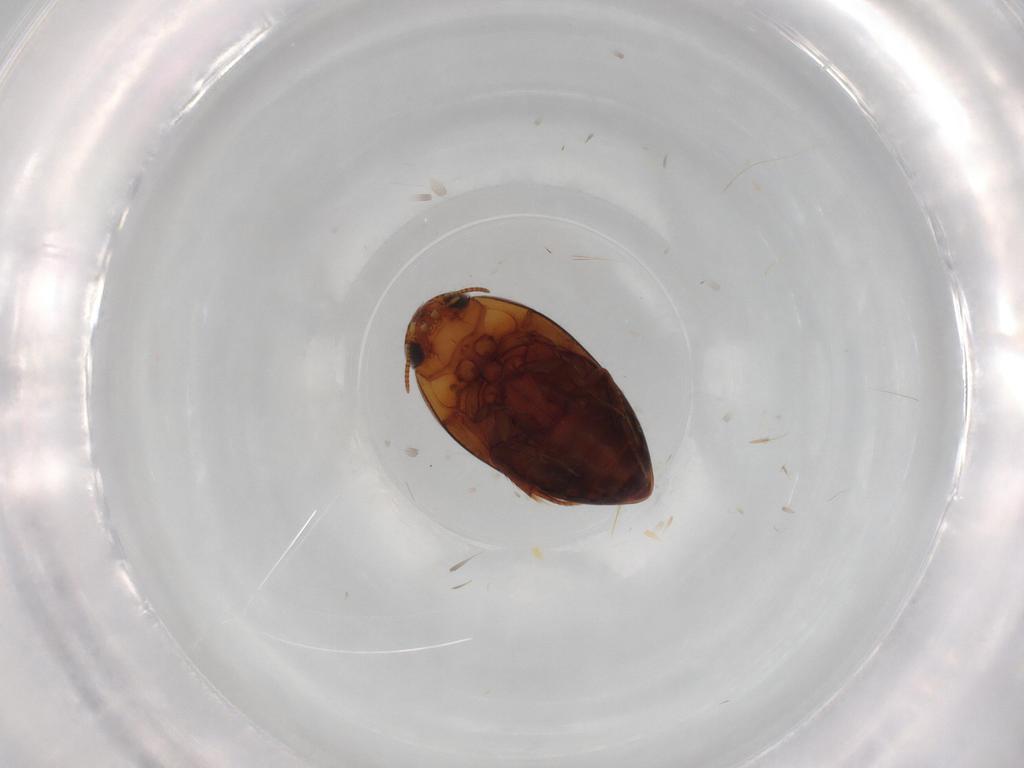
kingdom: Animalia
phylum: Arthropoda
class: Insecta
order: Coleoptera
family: Noteridae
